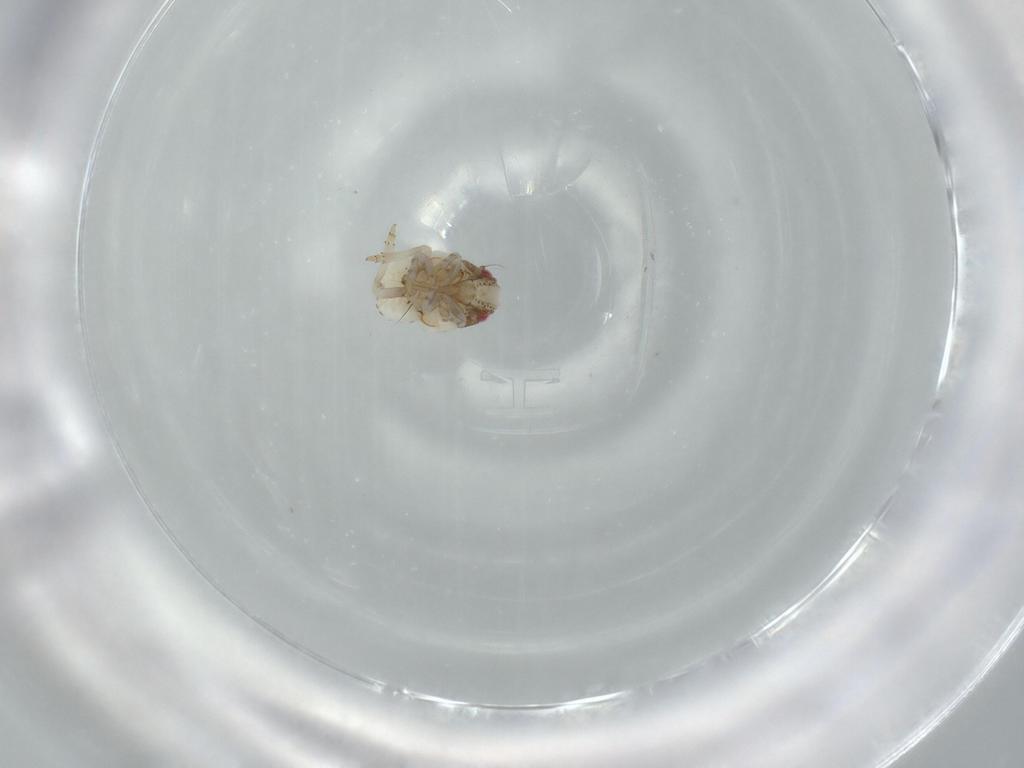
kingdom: Animalia
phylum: Arthropoda
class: Insecta
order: Hemiptera
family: Acanaloniidae
